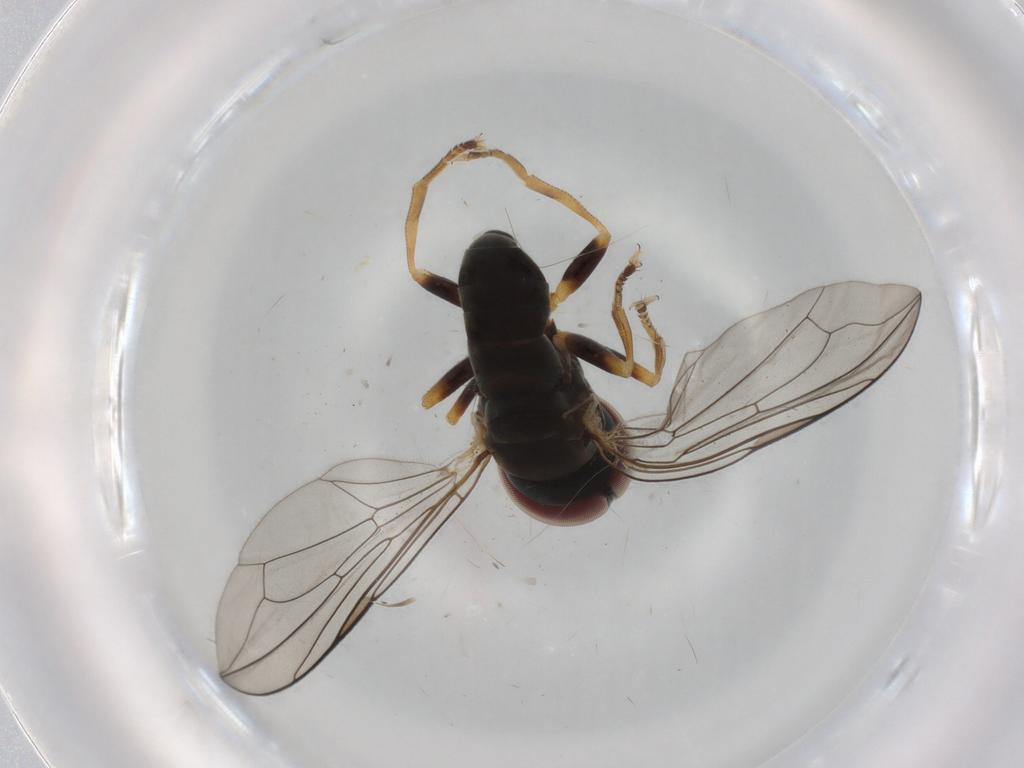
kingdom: Animalia
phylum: Arthropoda
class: Insecta
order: Diptera
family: Pipunculidae
